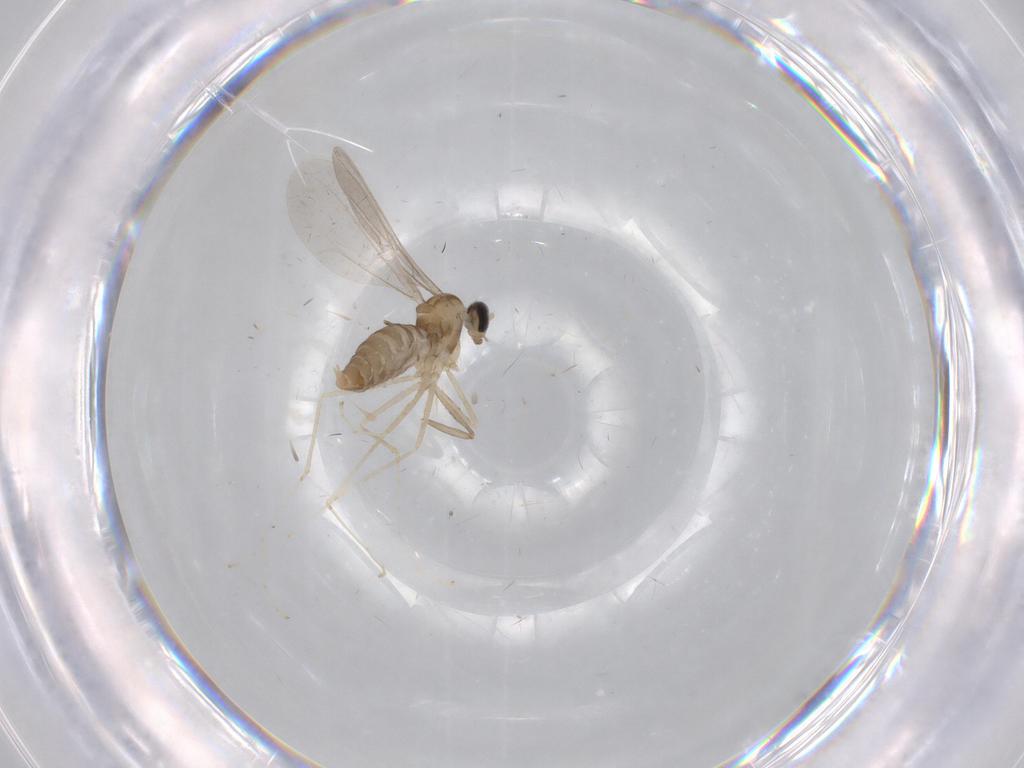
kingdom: Animalia
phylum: Arthropoda
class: Insecta
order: Diptera
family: Cecidomyiidae
